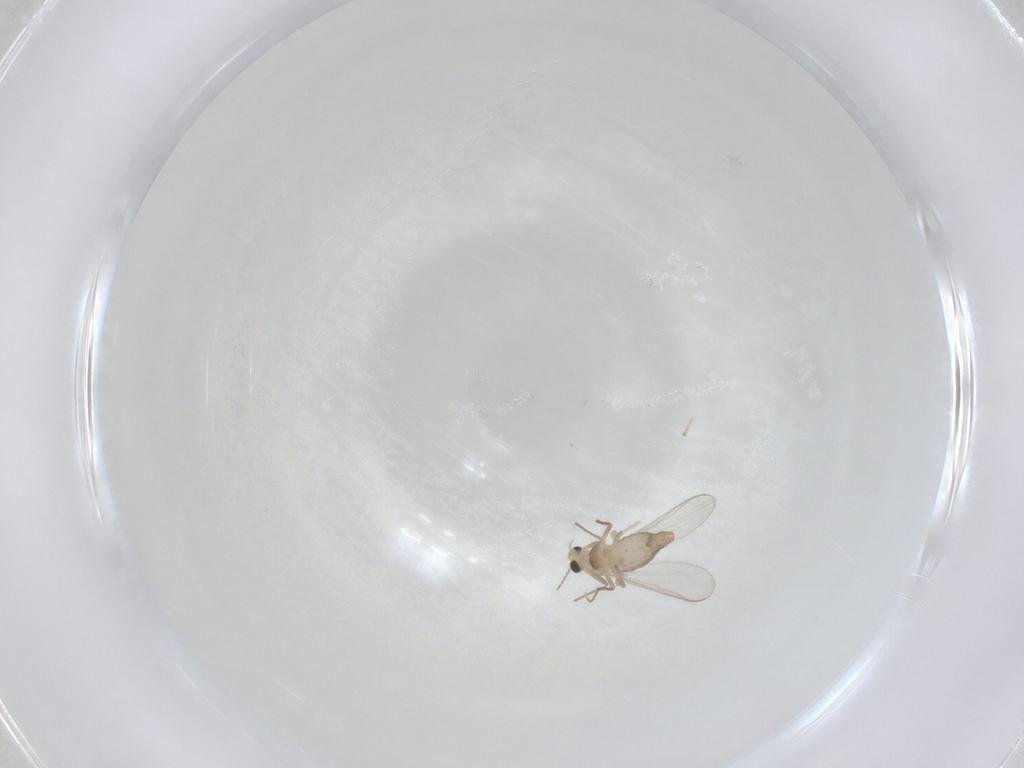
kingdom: Animalia
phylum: Arthropoda
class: Insecta
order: Diptera
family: Chironomidae
